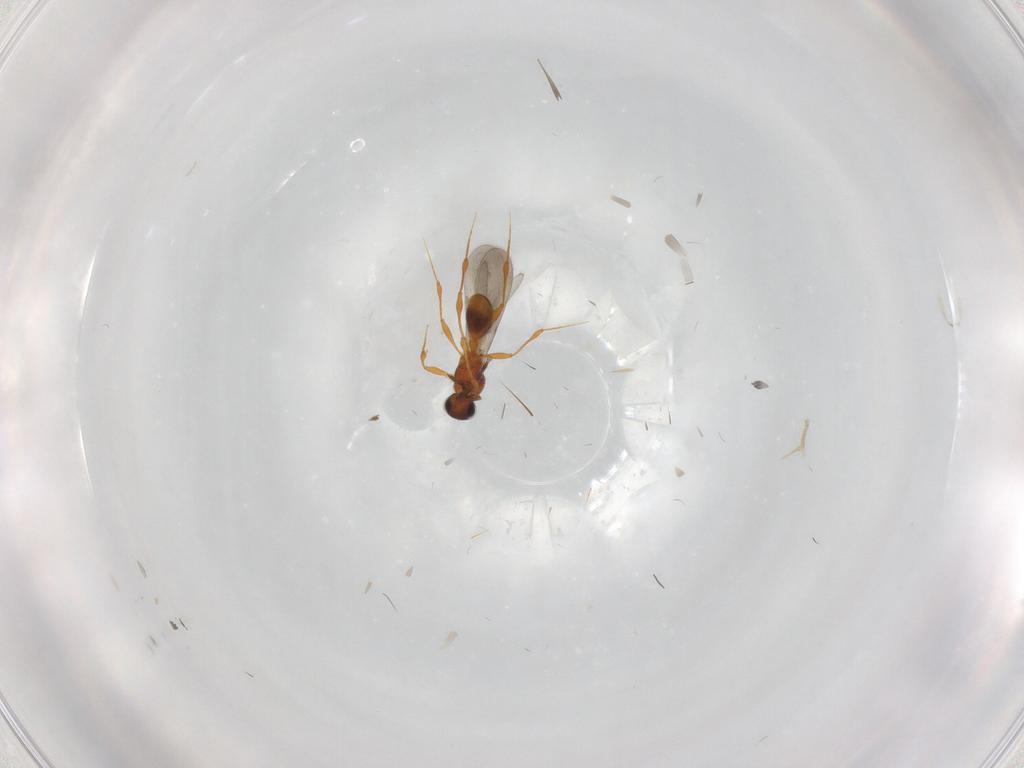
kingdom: Animalia
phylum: Arthropoda
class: Insecta
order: Hymenoptera
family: Platygastridae
